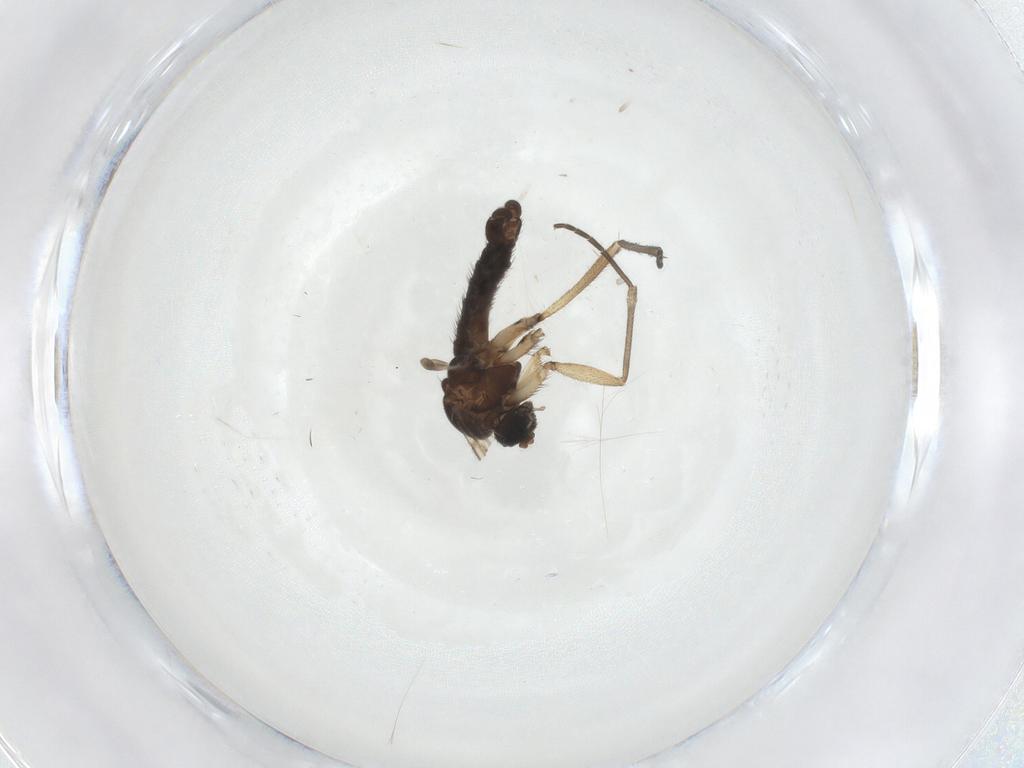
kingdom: Animalia
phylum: Arthropoda
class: Insecta
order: Diptera
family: Sciaridae
